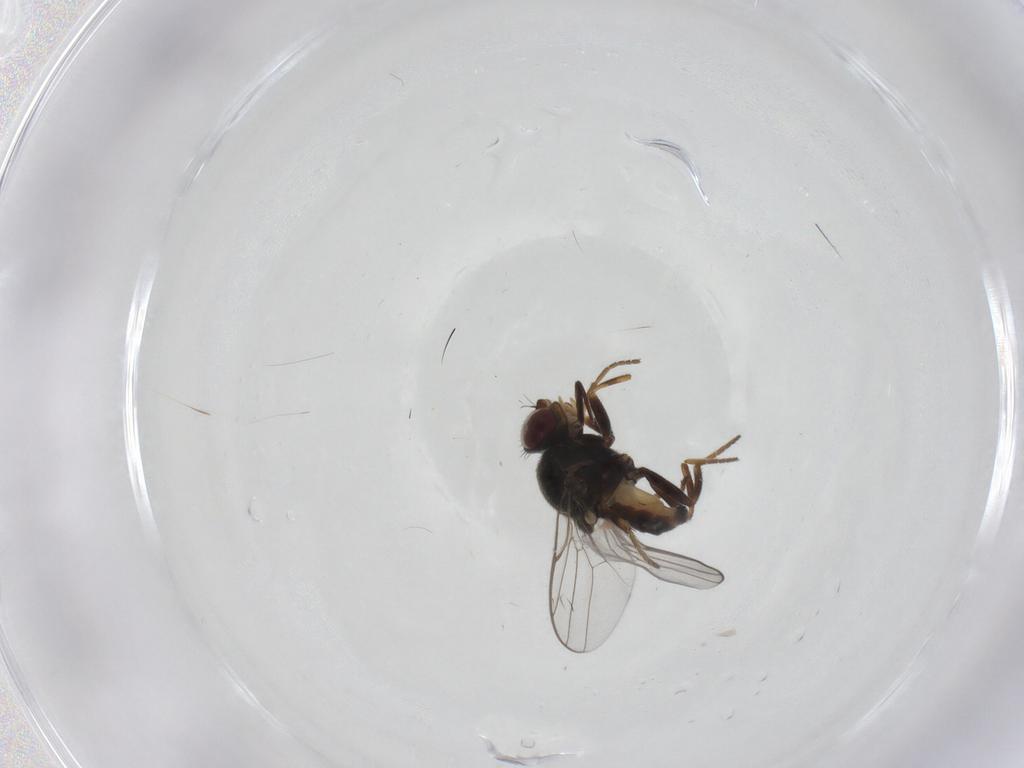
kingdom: Animalia
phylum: Arthropoda
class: Insecta
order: Diptera
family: Chloropidae
